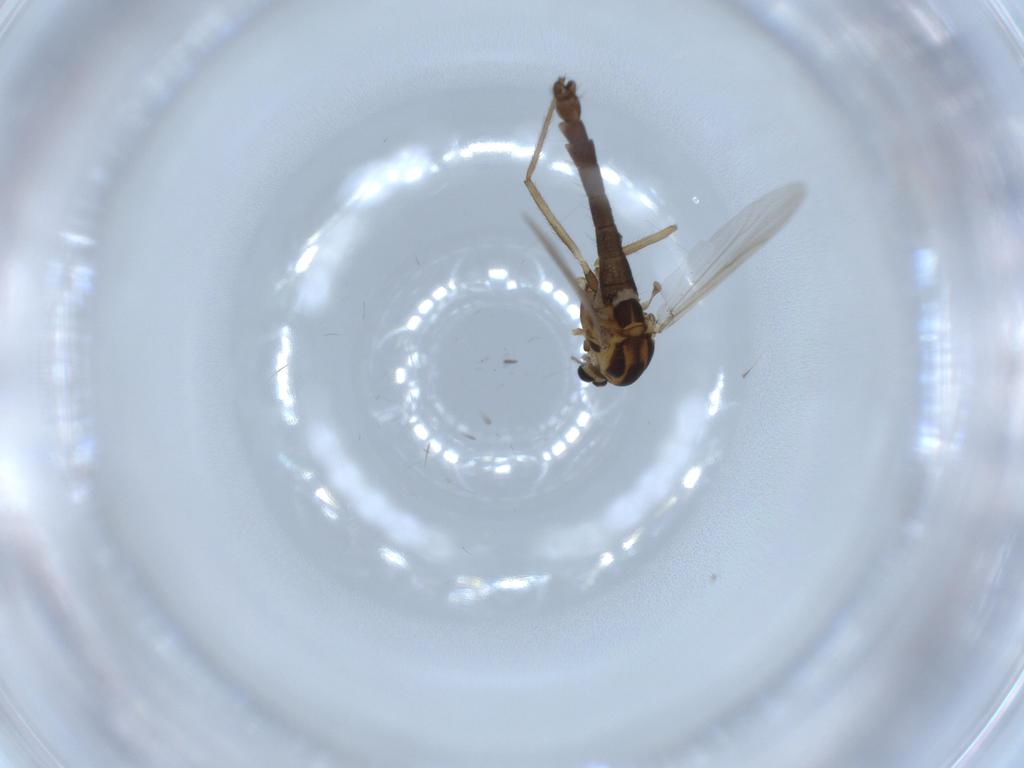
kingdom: Animalia
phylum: Arthropoda
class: Insecta
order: Diptera
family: Chironomidae
